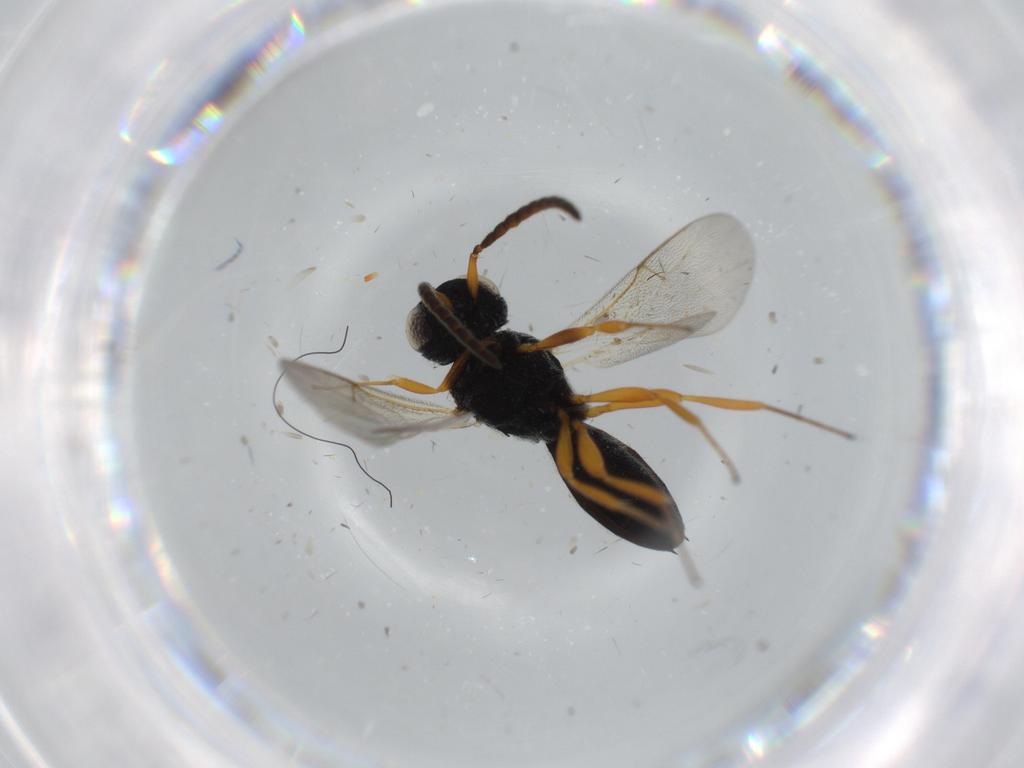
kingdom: Animalia
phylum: Arthropoda
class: Insecta
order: Hymenoptera
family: Scelionidae
